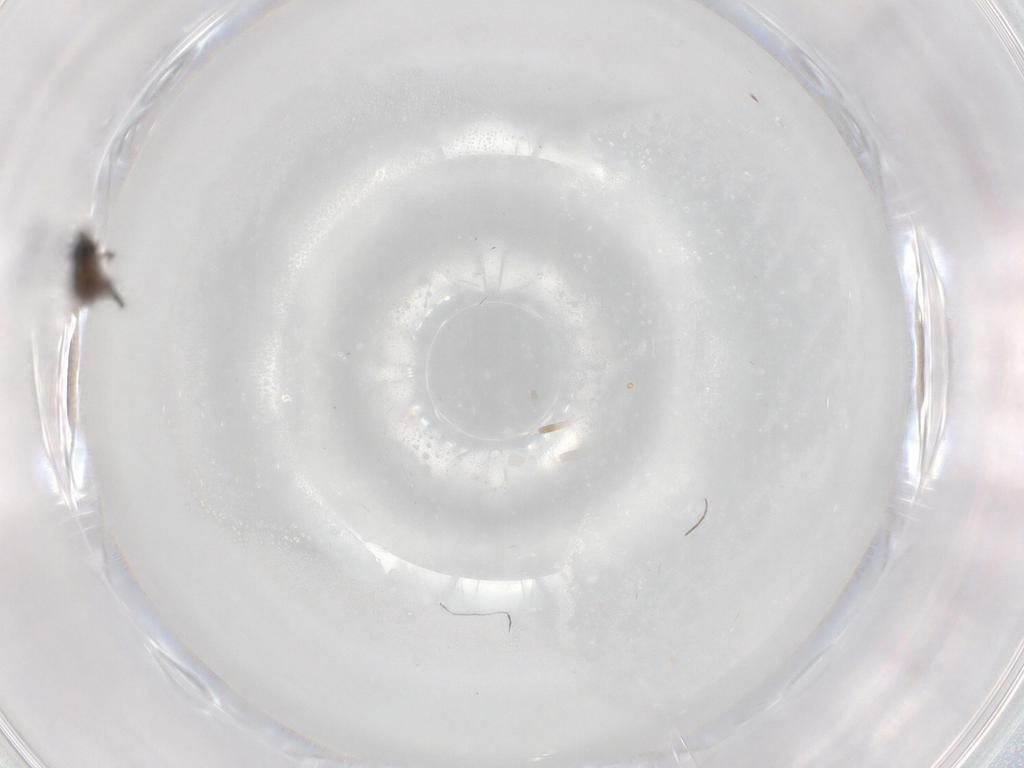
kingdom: Animalia
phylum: Arthropoda
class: Insecta
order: Diptera
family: Phoridae
